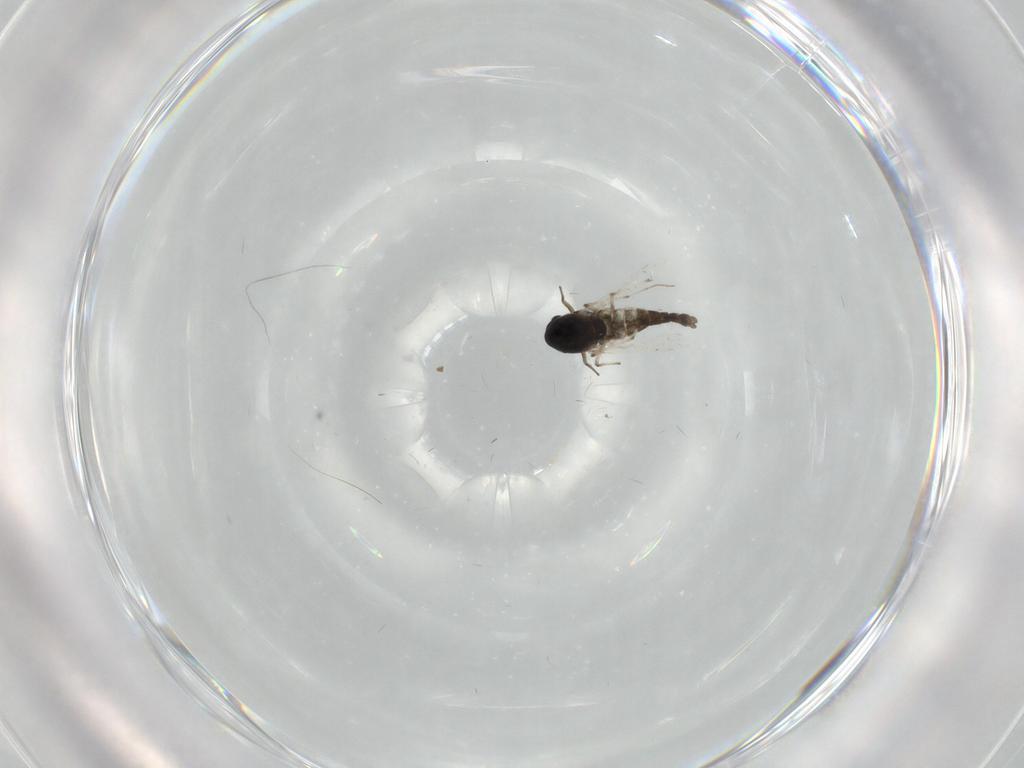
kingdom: Animalia
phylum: Arthropoda
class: Insecta
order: Diptera
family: Chironomidae
